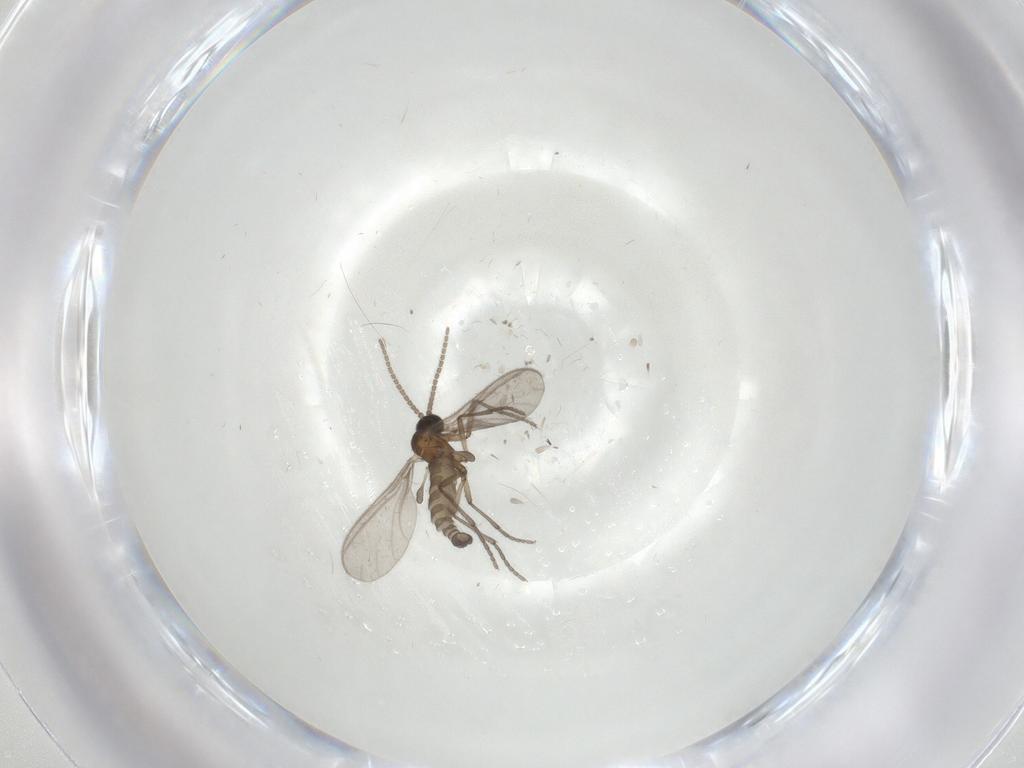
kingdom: Animalia
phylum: Arthropoda
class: Insecta
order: Diptera
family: Sciaridae
